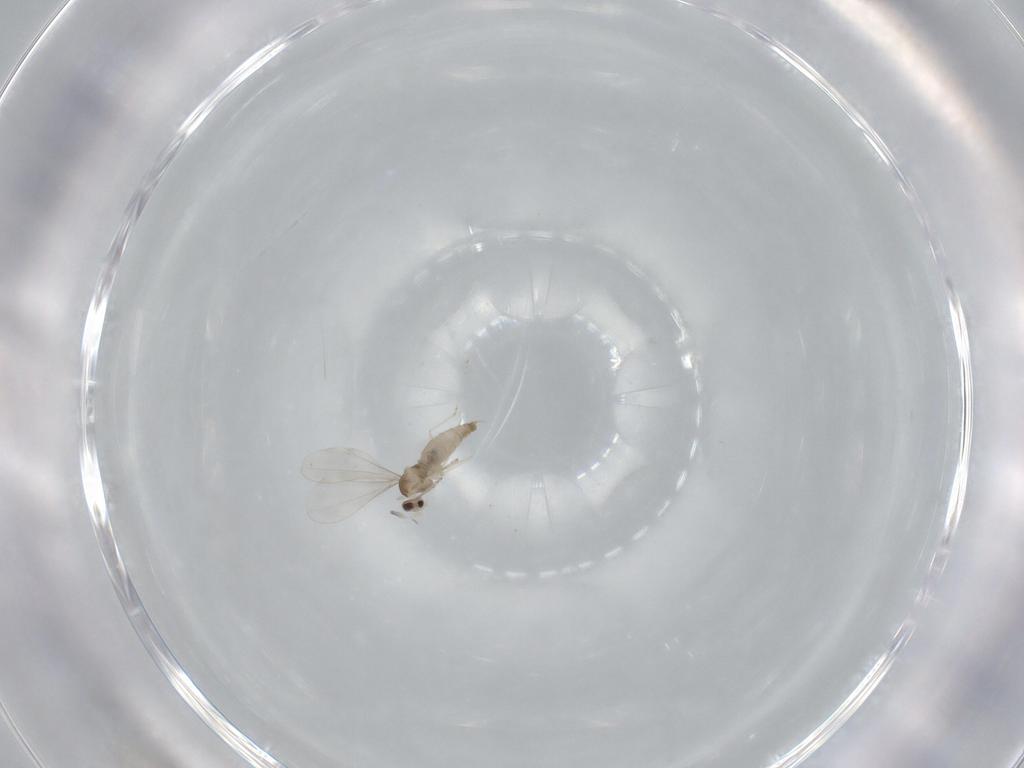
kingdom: Animalia
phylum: Arthropoda
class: Insecta
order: Diptera
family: Cecidomyiidae
